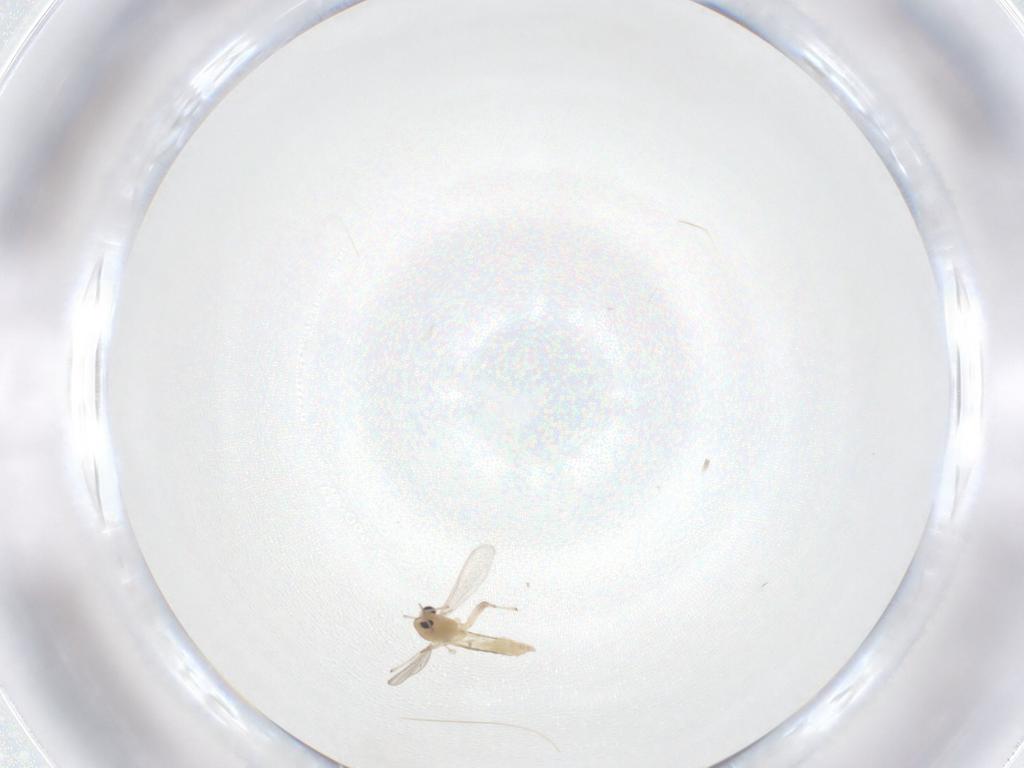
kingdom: Animalia
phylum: Arthropoda
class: Insecta
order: Diptera
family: Chironomidae
